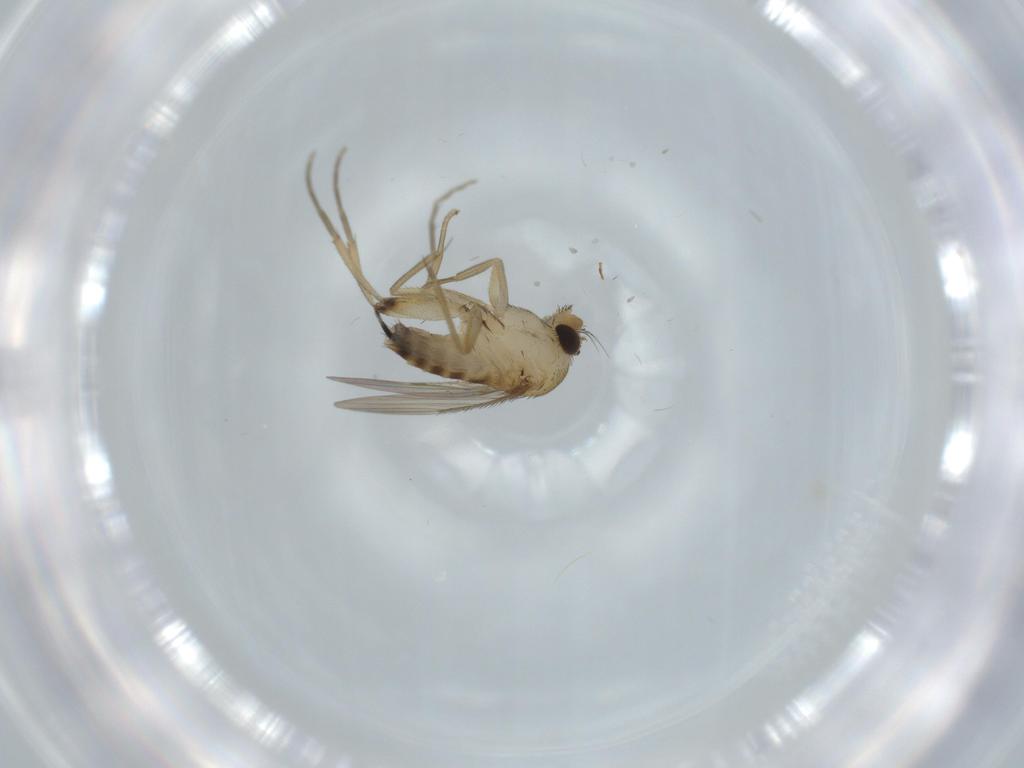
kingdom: Animalia
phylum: Arthropoda
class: Insecta
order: Diptera
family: Phoridae
